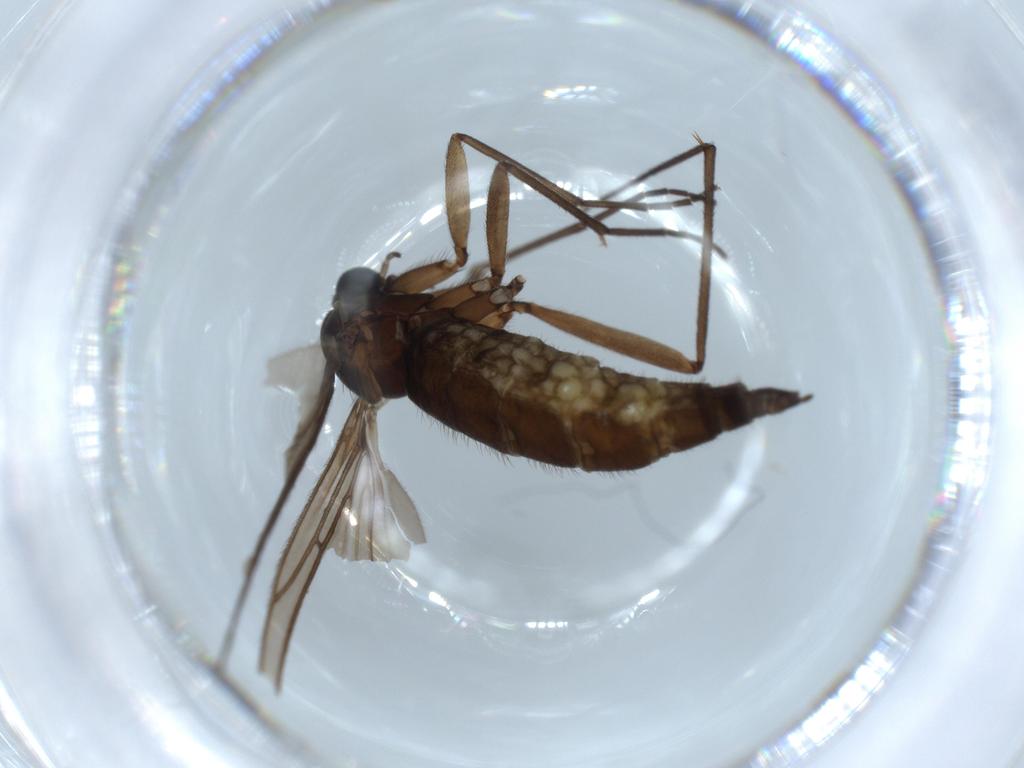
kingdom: Animalia
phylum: Arthropoda
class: Insecta
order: Diptera
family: Sciaridae
